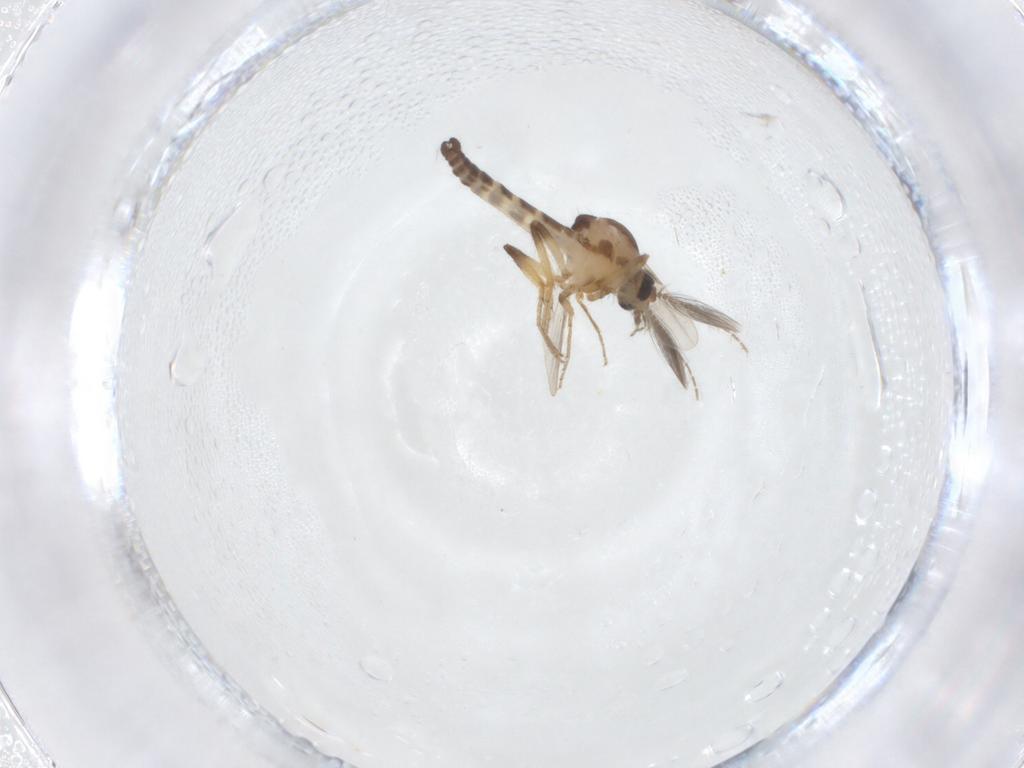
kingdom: Animalia
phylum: Arthropoda
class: Insecta
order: Diptera
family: Ceratopogonidae
